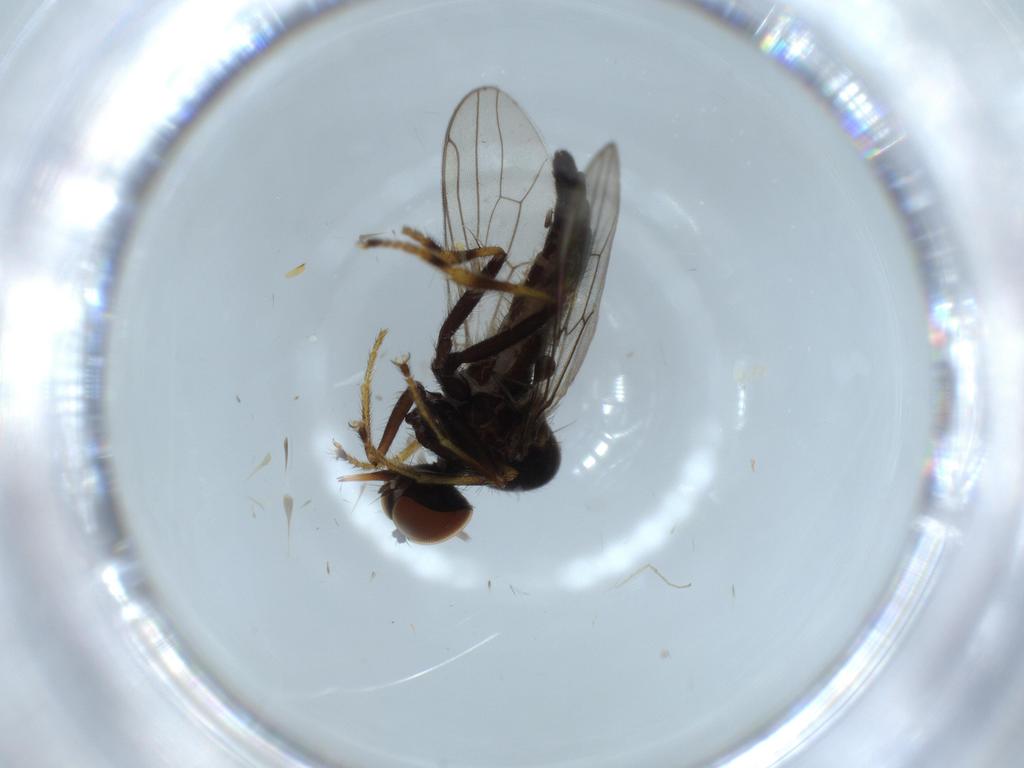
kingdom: Animalia
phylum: Arthropoda
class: Insecta
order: Diptera
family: Hybotidae
